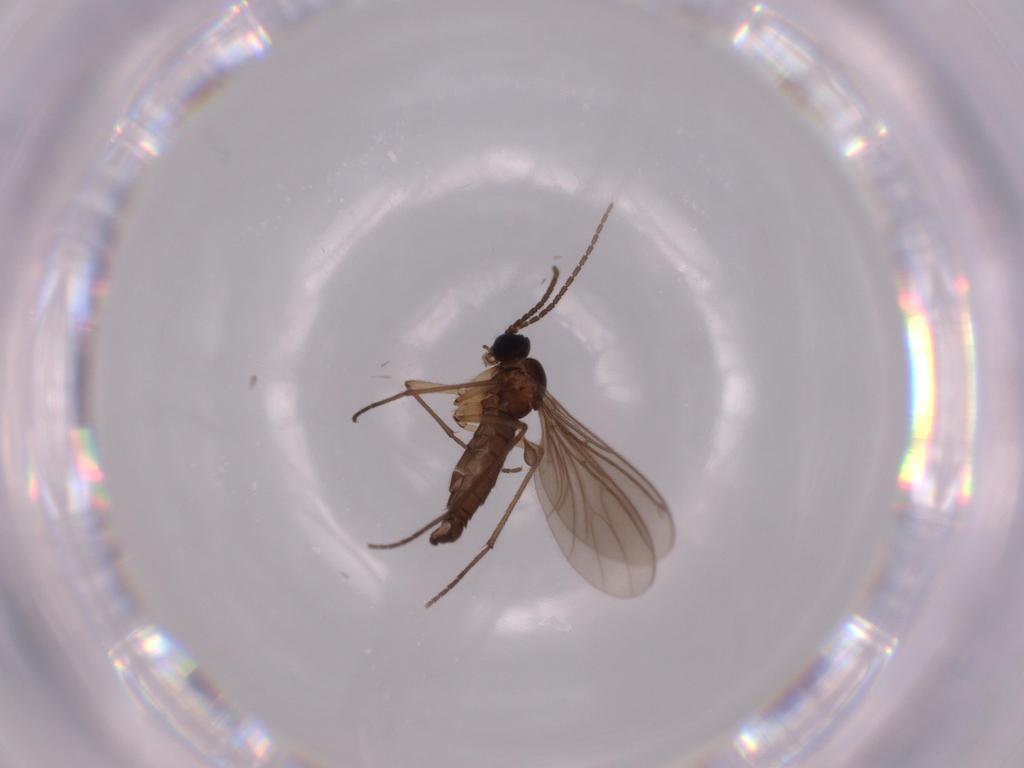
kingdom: Animalia
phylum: Arthropoda
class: Insecta
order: Diptera
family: Sciaridae
